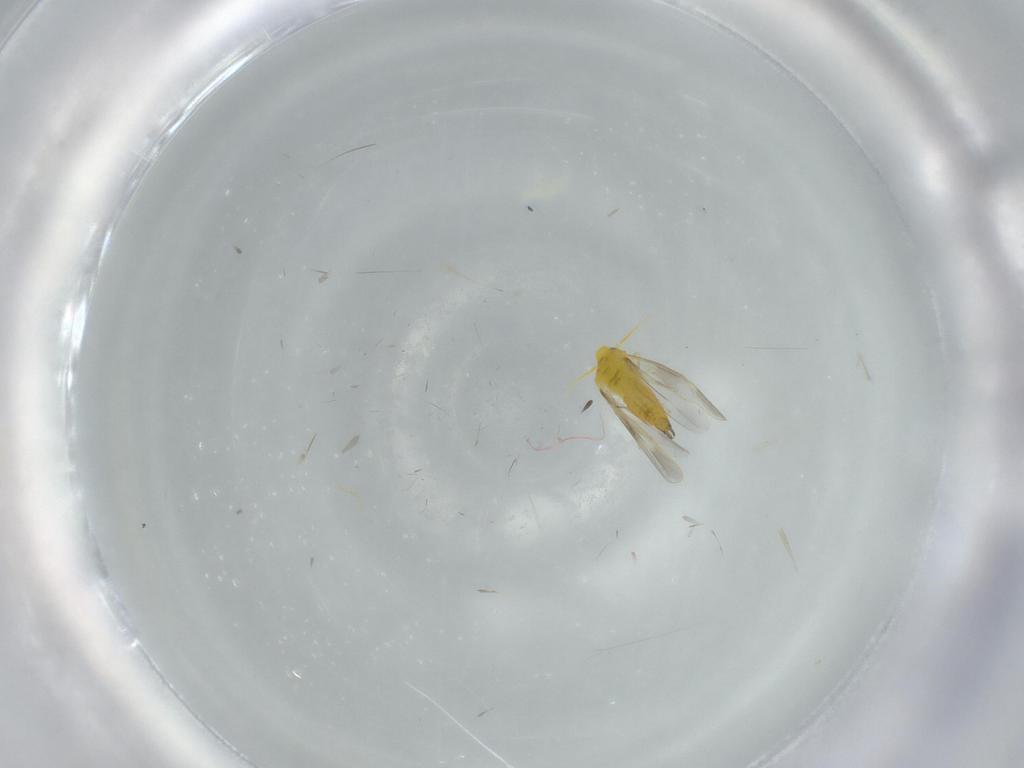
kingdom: Animalia
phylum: Arthropoda
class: Insecta
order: Hemiptera
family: Aleyrodidae
